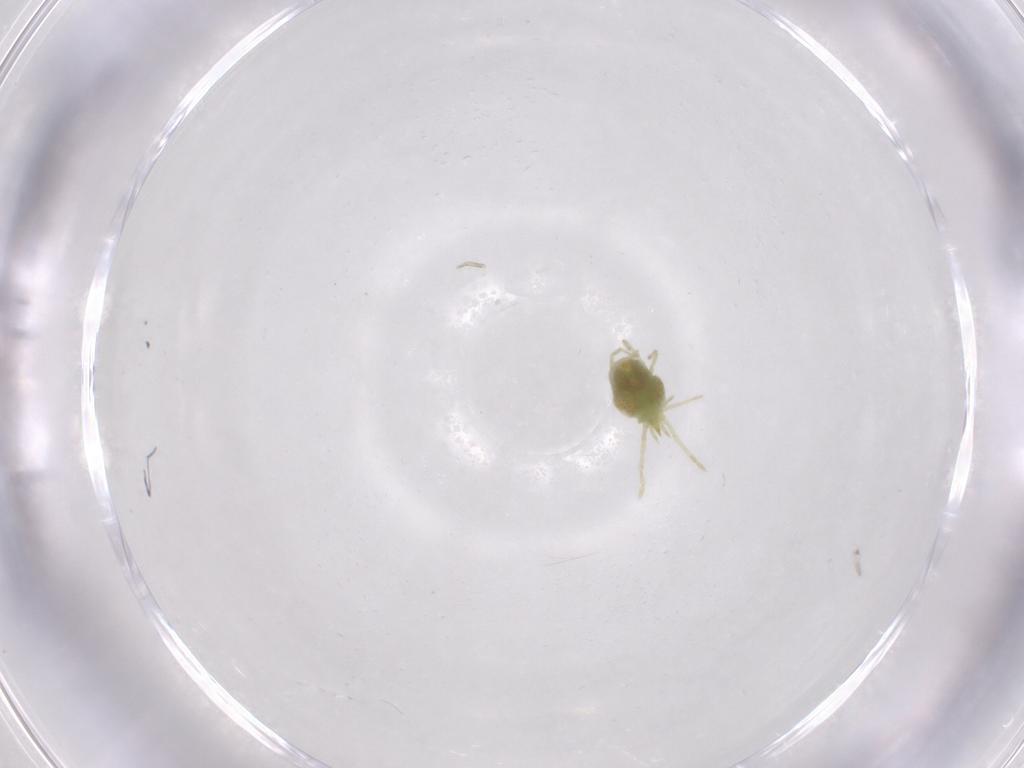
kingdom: Animalia
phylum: Arthropoda
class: Arachnida
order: Trombidiformes
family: Erythraeidae
